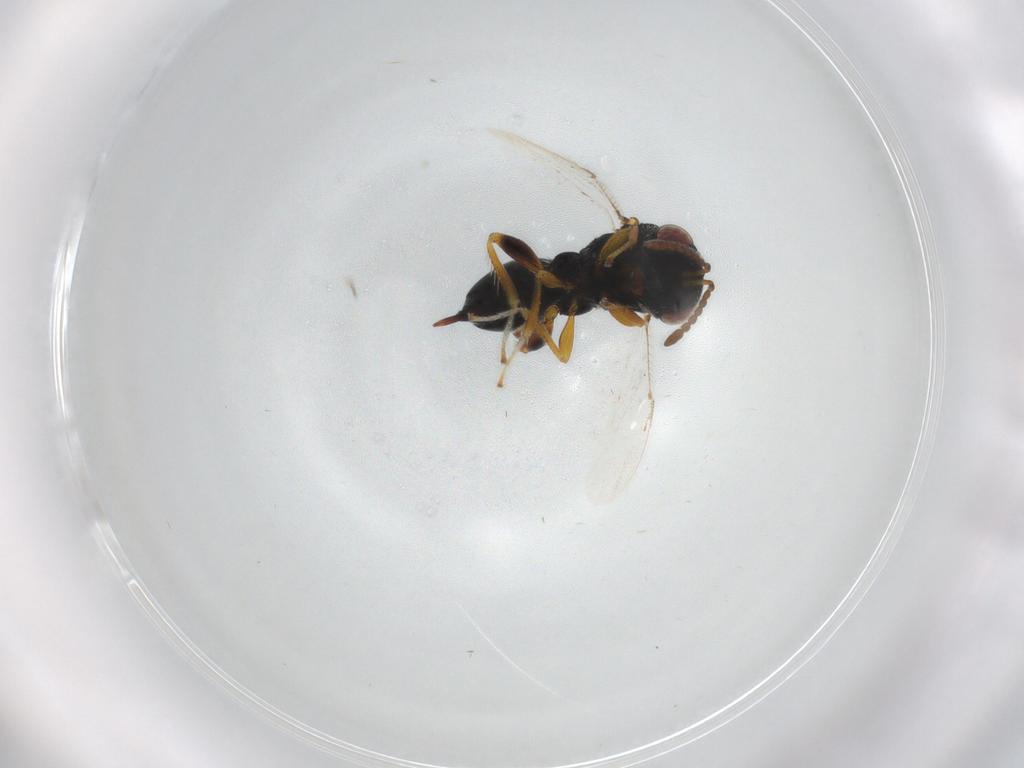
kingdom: Animalia
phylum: Arthropoda
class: Insecta
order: Hymenoptera
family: Eurytomidae
